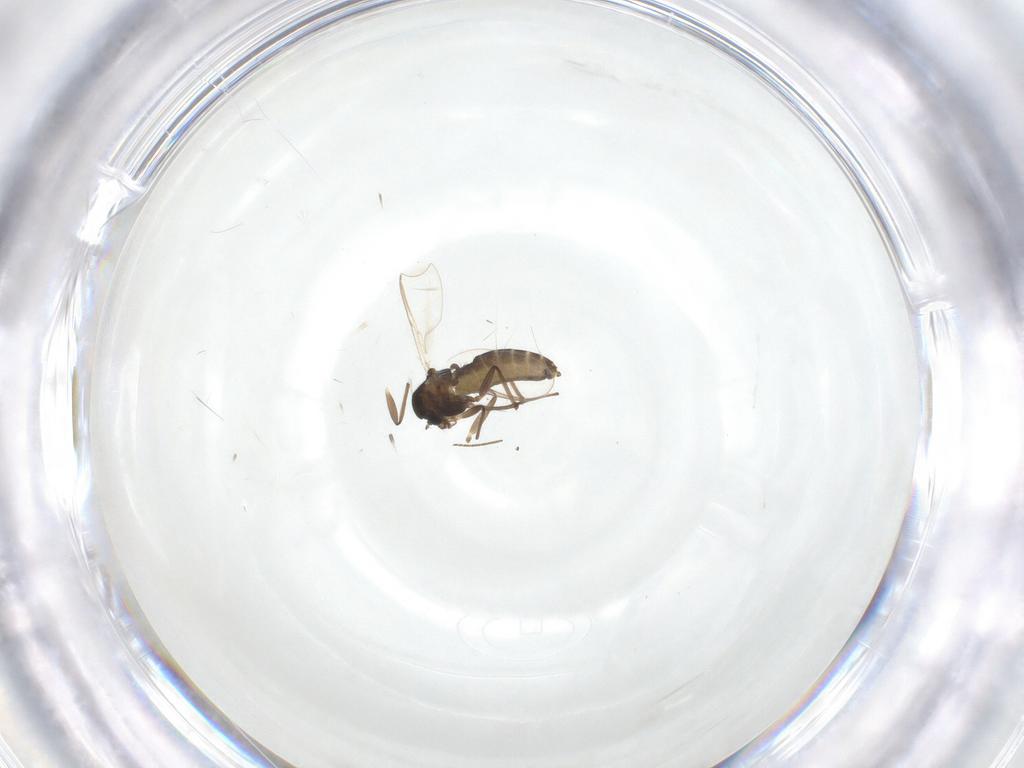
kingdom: Animalia
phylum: Arthropoda
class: Insecta
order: Diptera
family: Chironomidae
